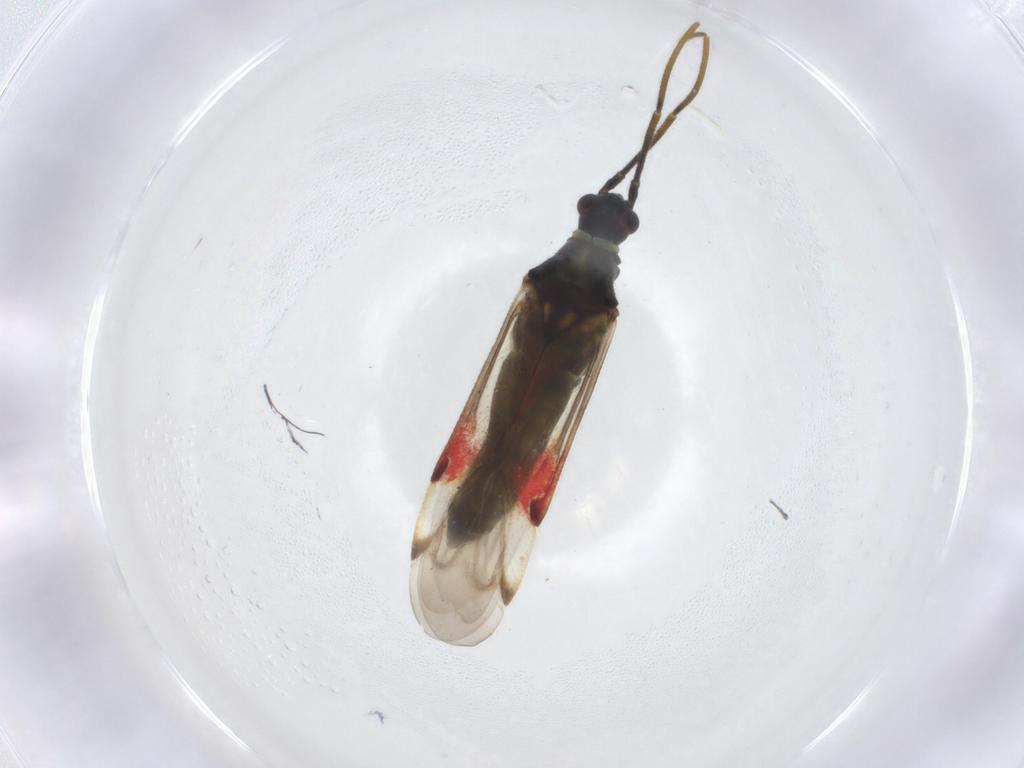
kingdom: Animalia
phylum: Arthropoda
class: Insecta
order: Hemiptera
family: Miridae
